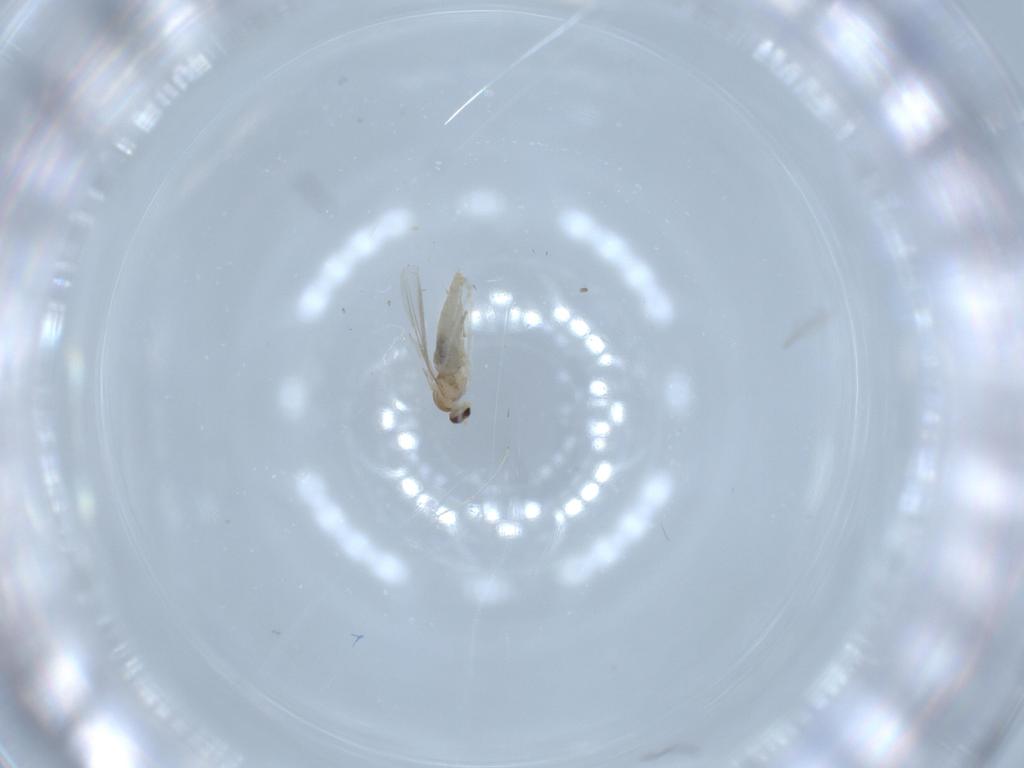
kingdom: Animalia
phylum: Arthropoda
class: Insecta
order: Diptera
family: Cecidomyiidae
